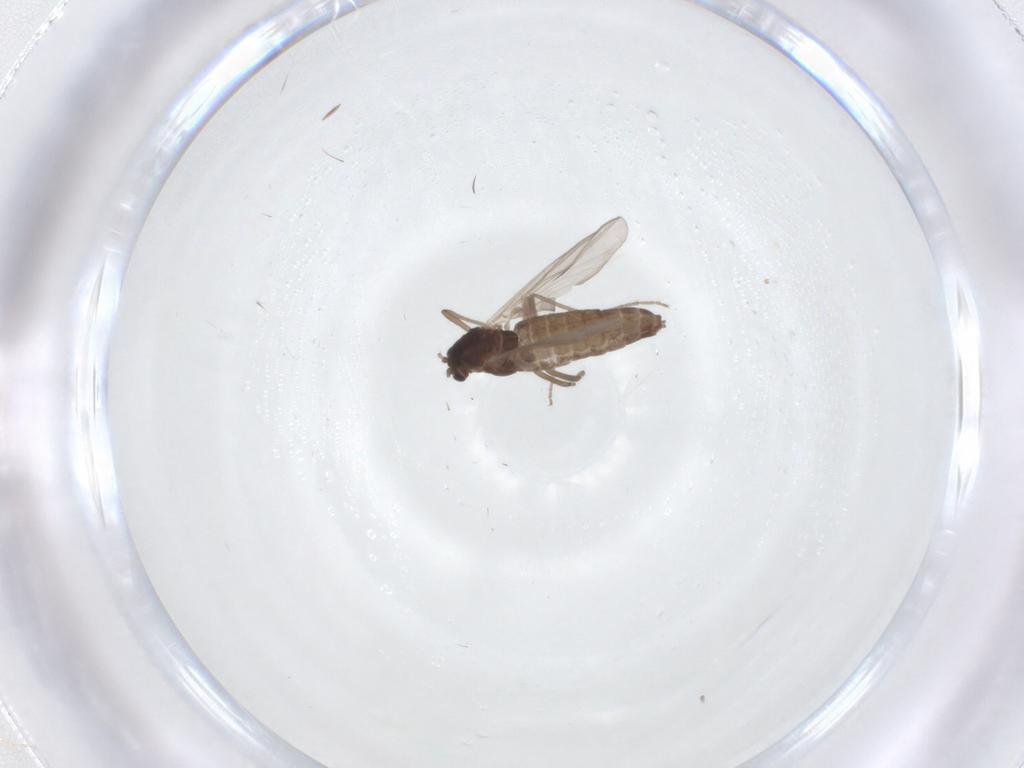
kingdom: Animalia
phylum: Arthropoda
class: Insecta
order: Diptera
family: Chironomidae
